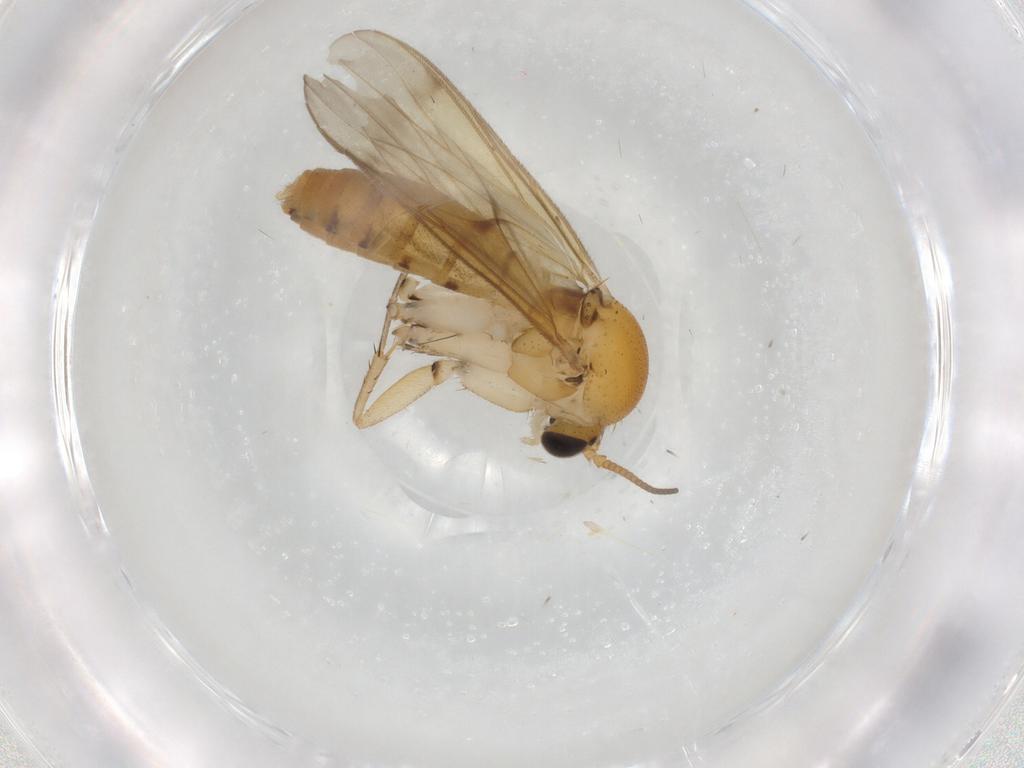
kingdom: Animalia
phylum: Arthropoda
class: Insecta
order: Diptera
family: Mycetophilidae
